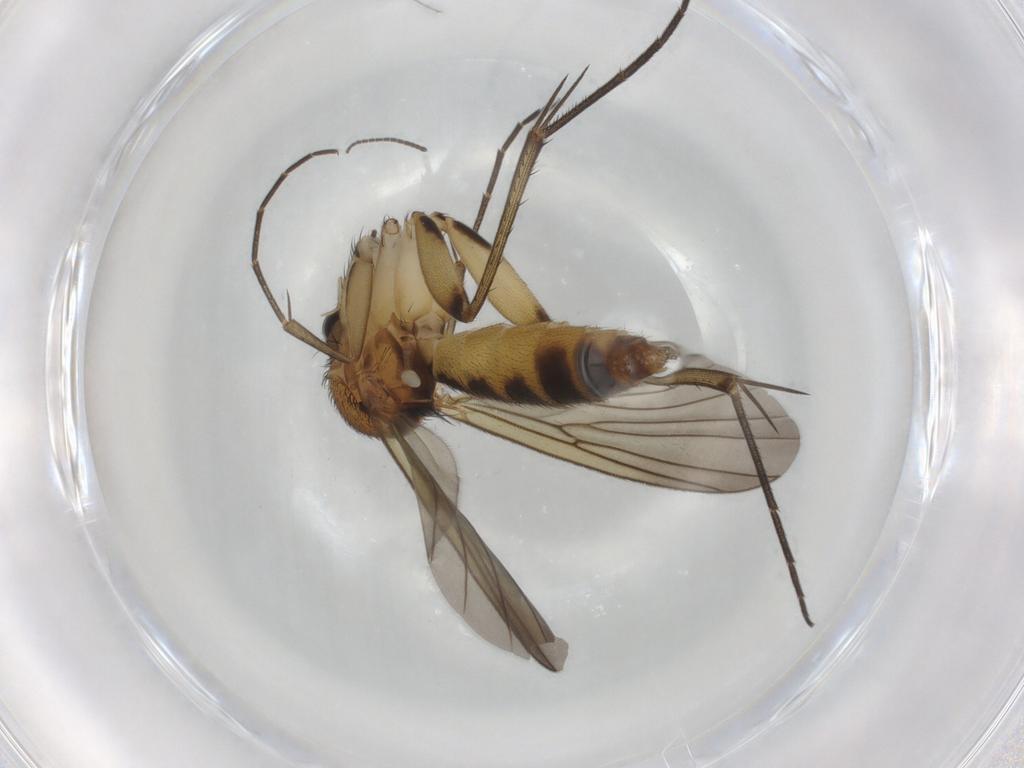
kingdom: Animalia
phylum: Arthropoda
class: Insecta
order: Diptera
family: Mycetophilidae
